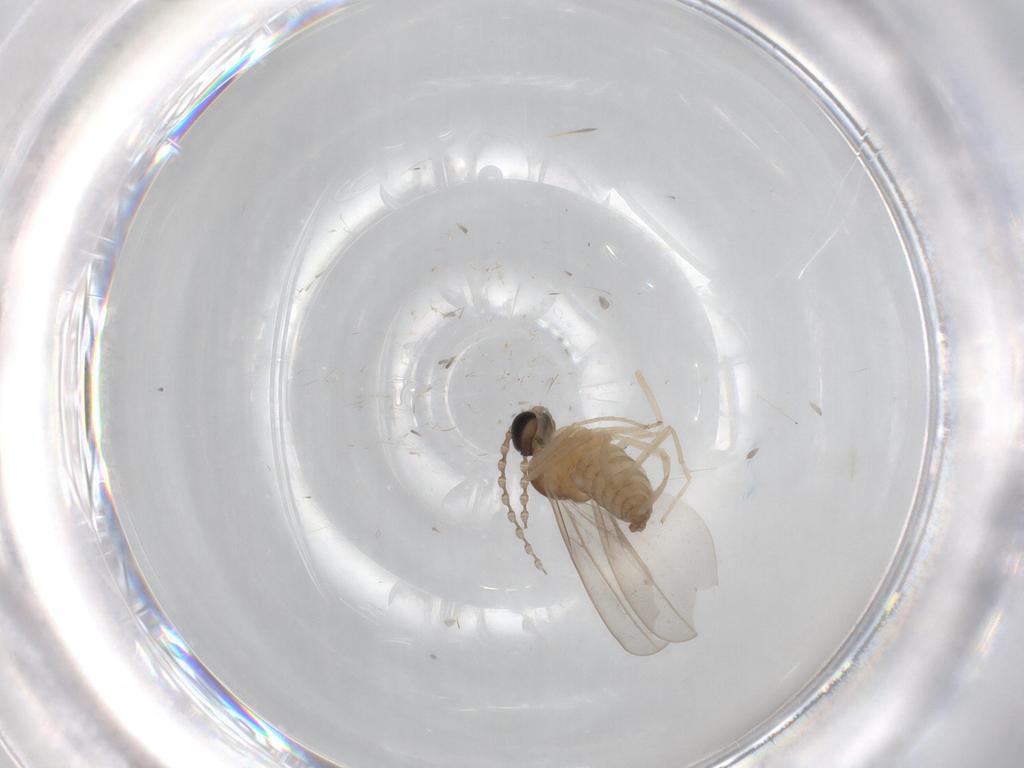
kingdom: Animalia
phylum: Arthropoda
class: Insecta
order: Diptera
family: Cecidomyiidae
